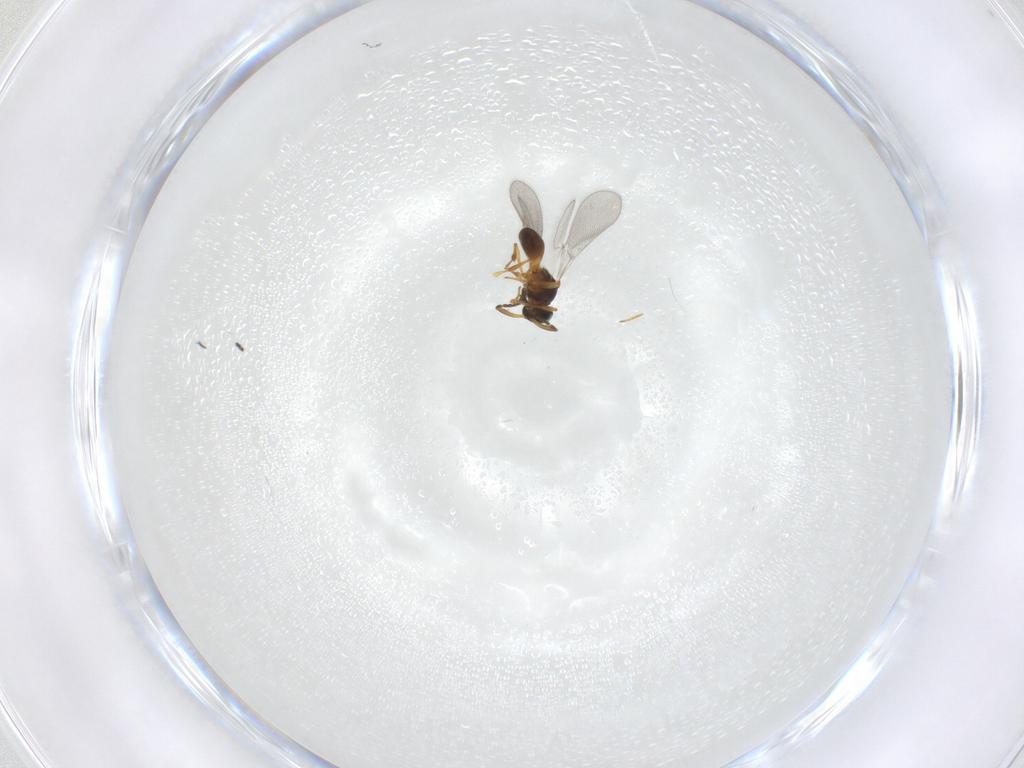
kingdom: Animalia
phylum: Arthropoda
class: Insecta
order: Hymenoptera
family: Platygastridae
